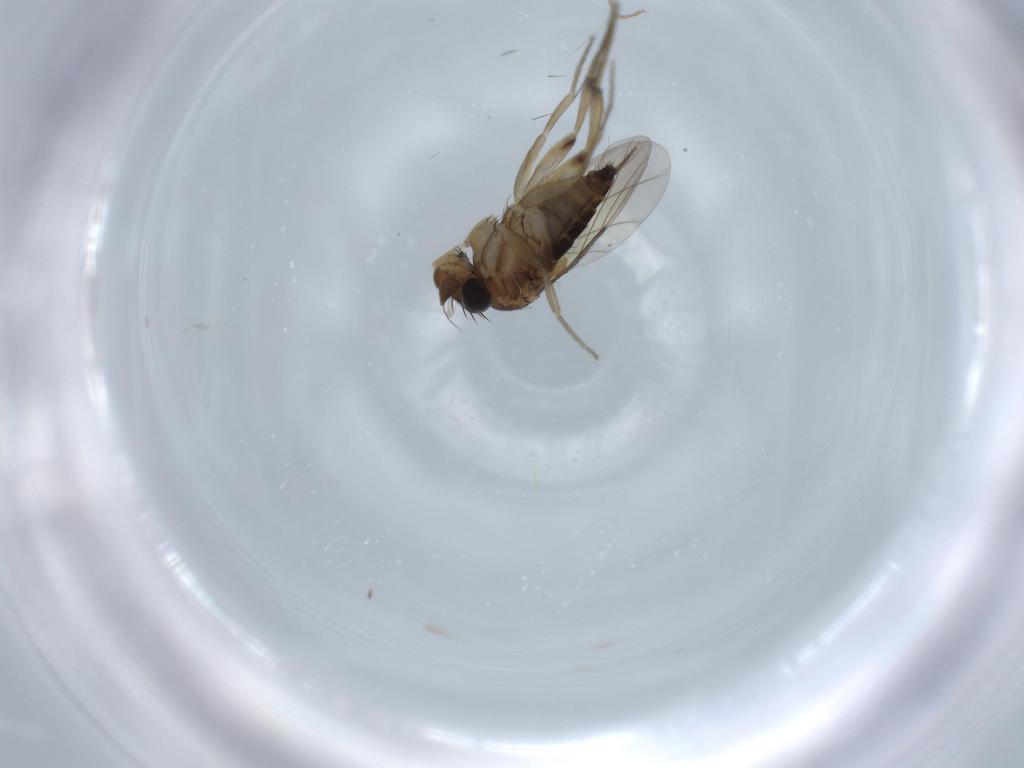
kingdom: Animalia
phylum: Arthropoda
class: Insecta
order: Diptera
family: Phoridae
